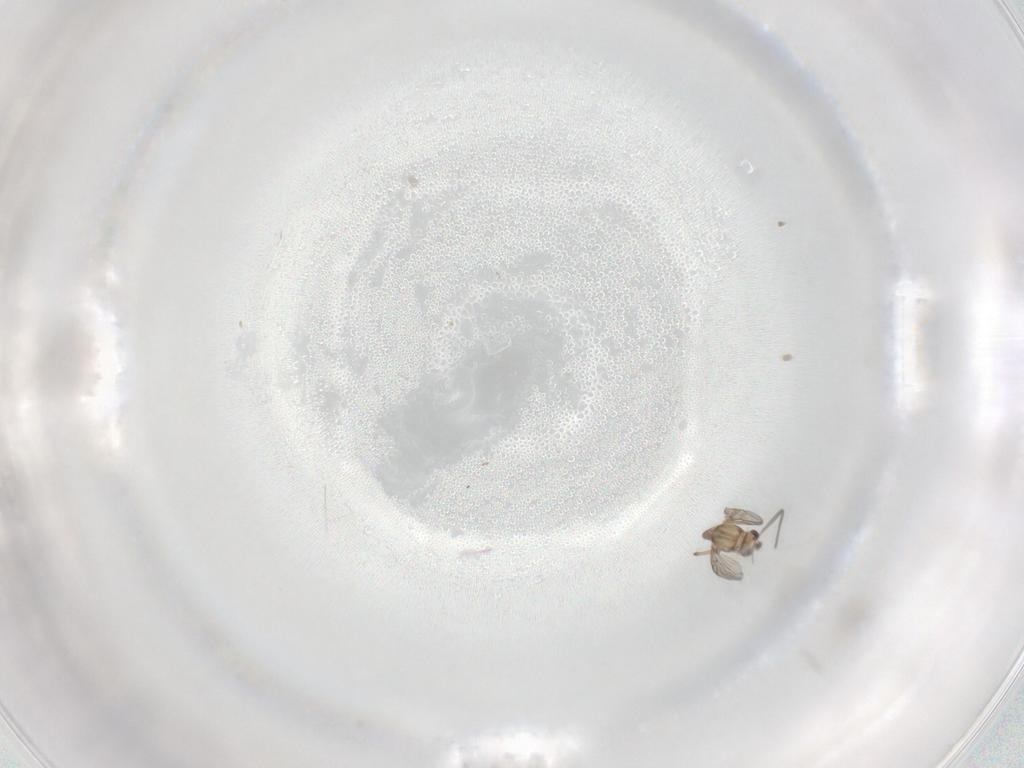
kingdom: Animalia
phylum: Arthropoda
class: Insecta
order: Diptera
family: Chironomidae
